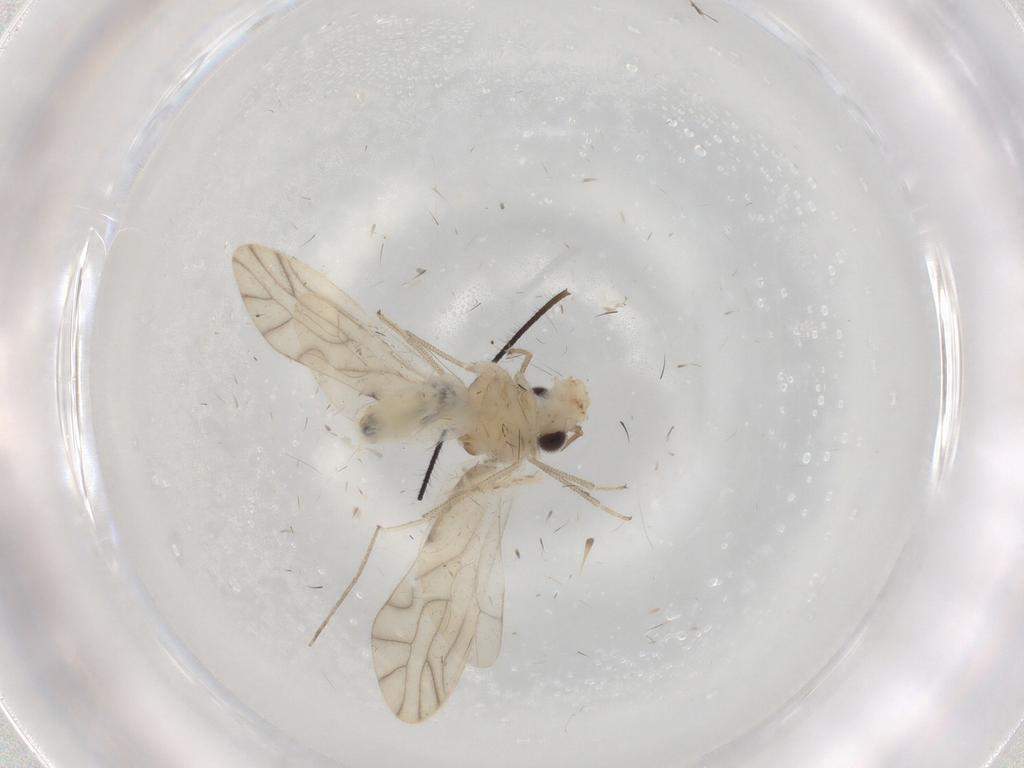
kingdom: Animalia
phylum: Arthropoda
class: Insecta
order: Psocodea
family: Caeciliusidae
